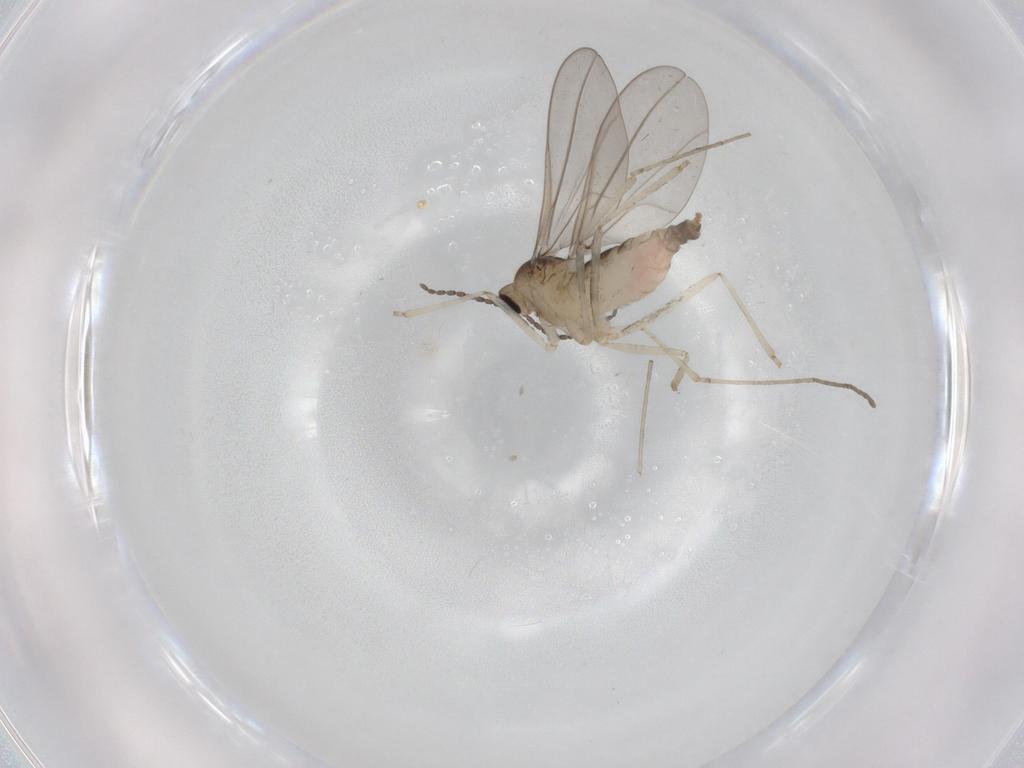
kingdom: Animalia
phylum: Arthropoda
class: Insecta
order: Diptera
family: Cecidomyiidae
